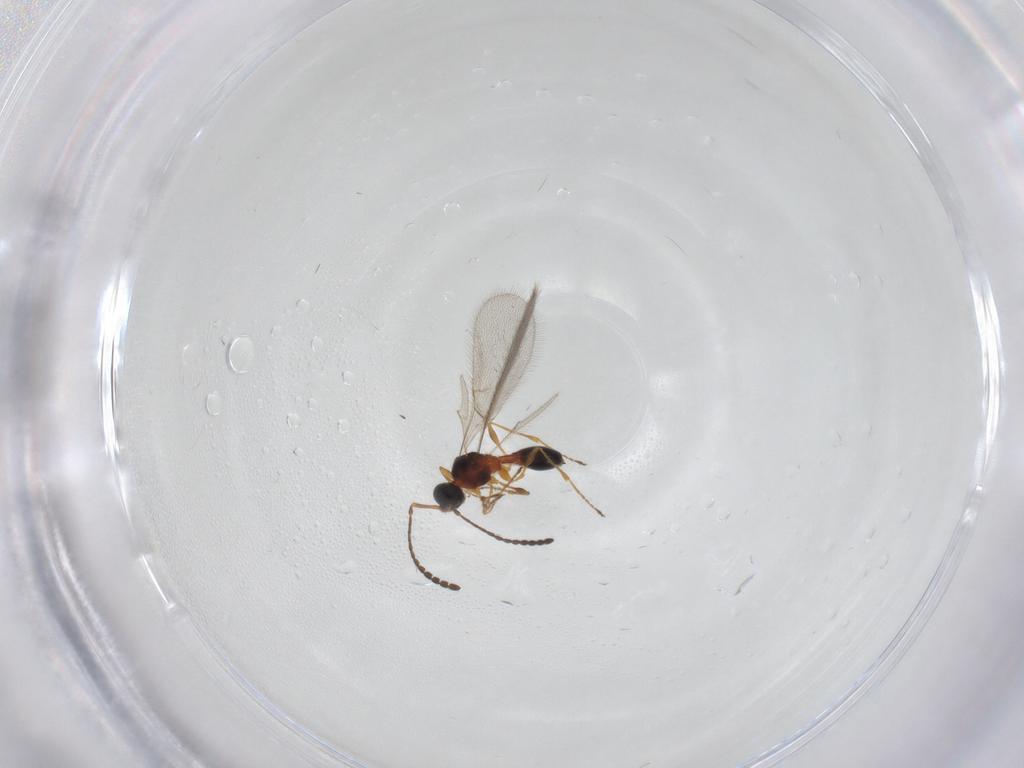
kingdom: Animalia
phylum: Arthropoda
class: Insecta
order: Hymenoptera
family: Diapriidae
